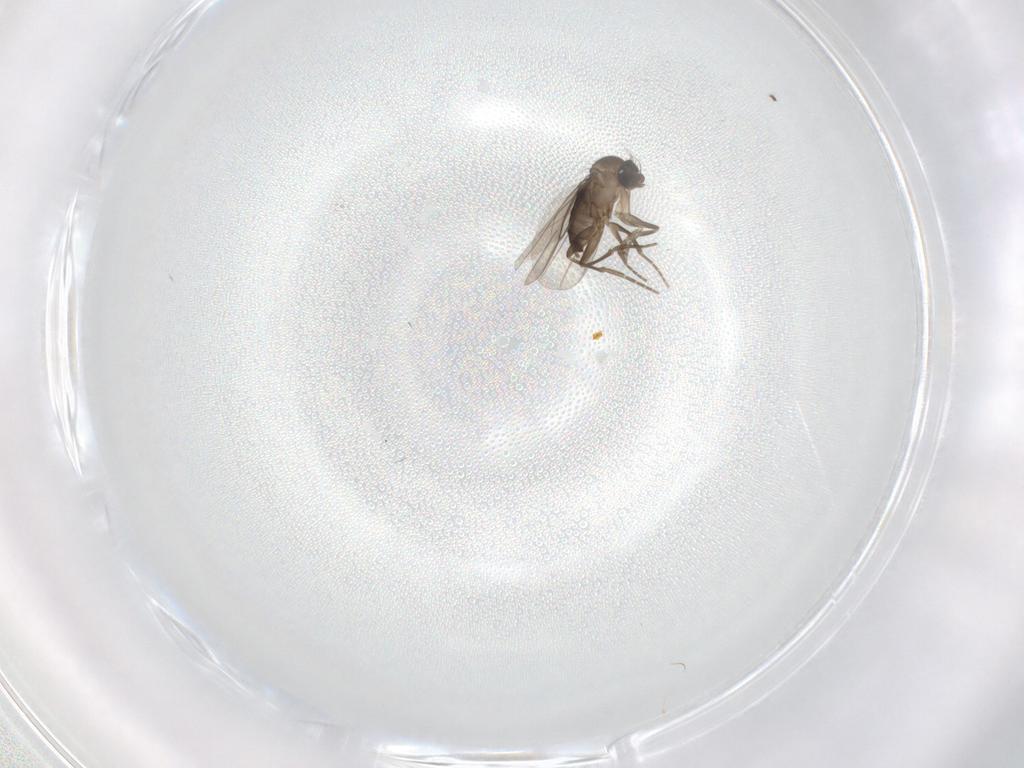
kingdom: Animalia
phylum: Arthropoda
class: Insecta
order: Diptera
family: Phoridae
